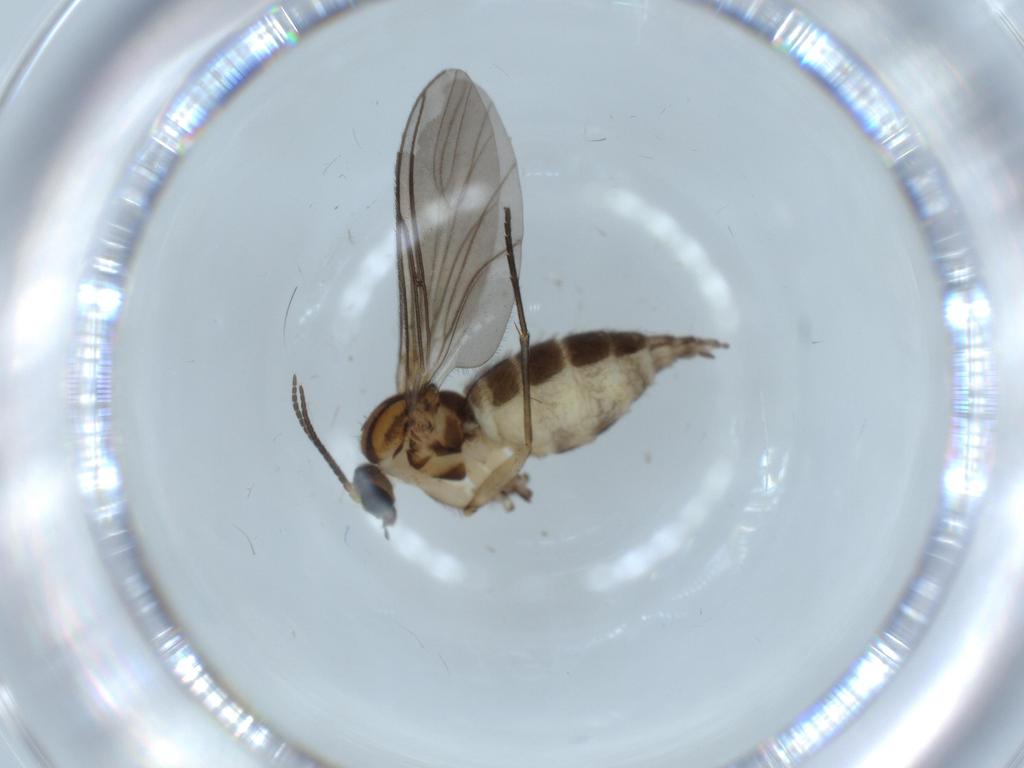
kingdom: Animalia
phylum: Arthropoda
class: Insecta
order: Diptera
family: Sciaridae
